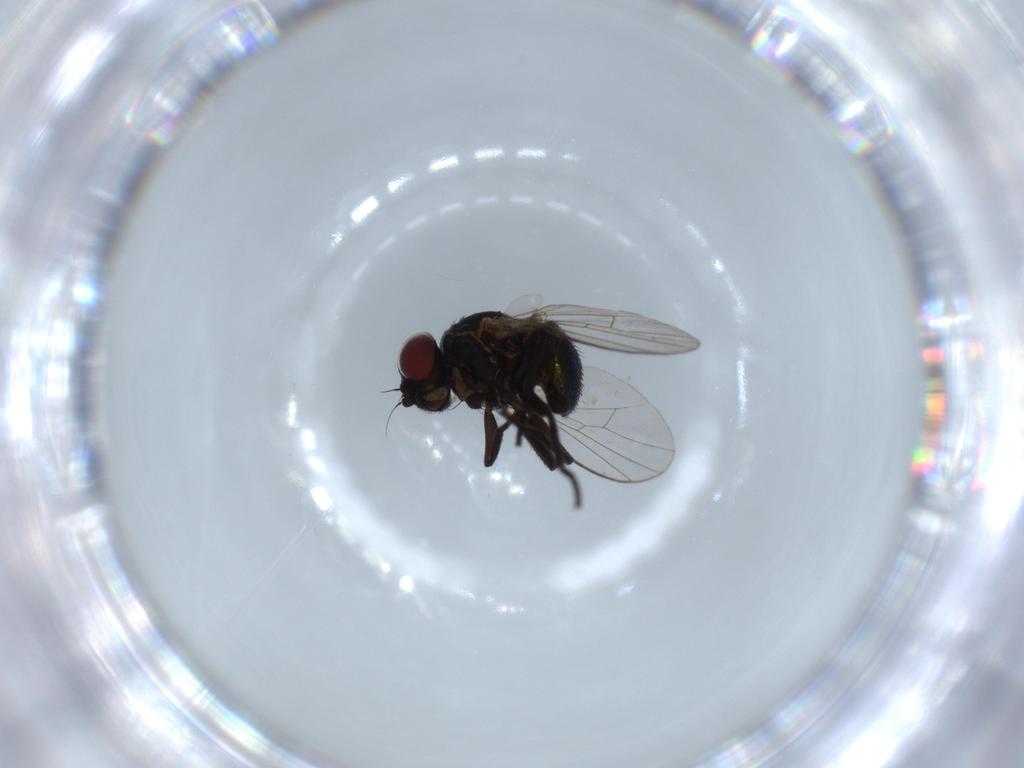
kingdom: Animalia
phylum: Arthropoda
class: Insecta
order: Diptera
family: Agromyzidae
